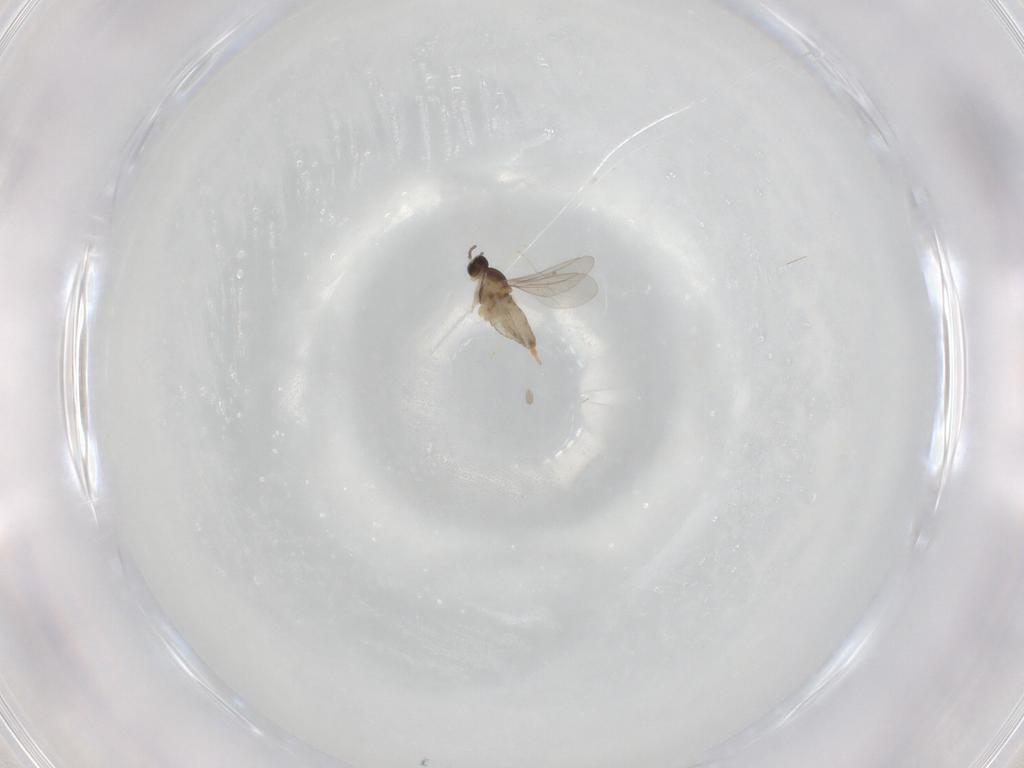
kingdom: Animalia
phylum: Arthropoda
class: Insecta
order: Diptera
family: Cecidomyiidae
